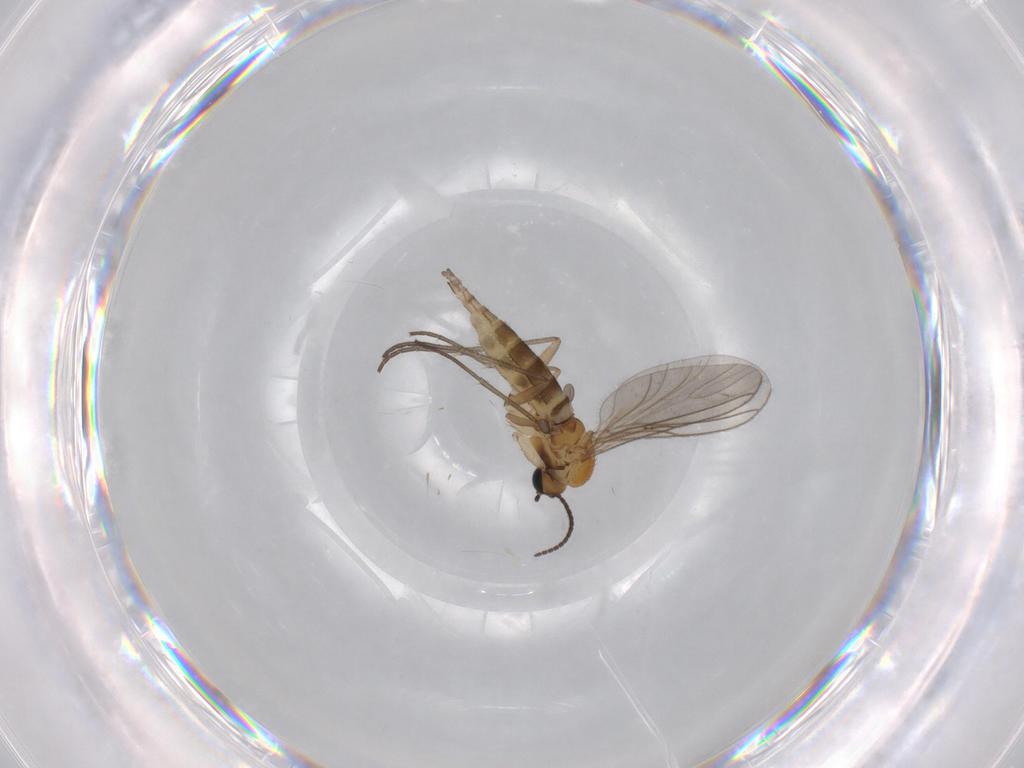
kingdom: Animalia
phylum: Arthropoda
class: Insecta
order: Diptera
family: Sciaridae
